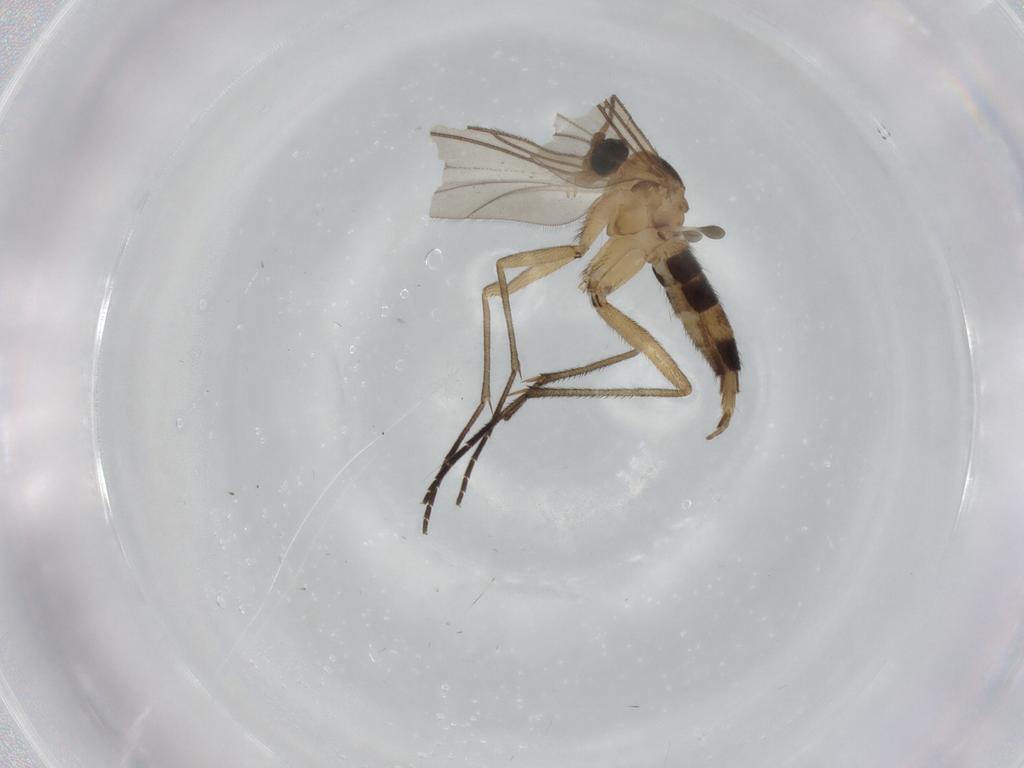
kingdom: Animalia
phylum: Arthropoda
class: Insecta
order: Diptera
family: Psychodidae
